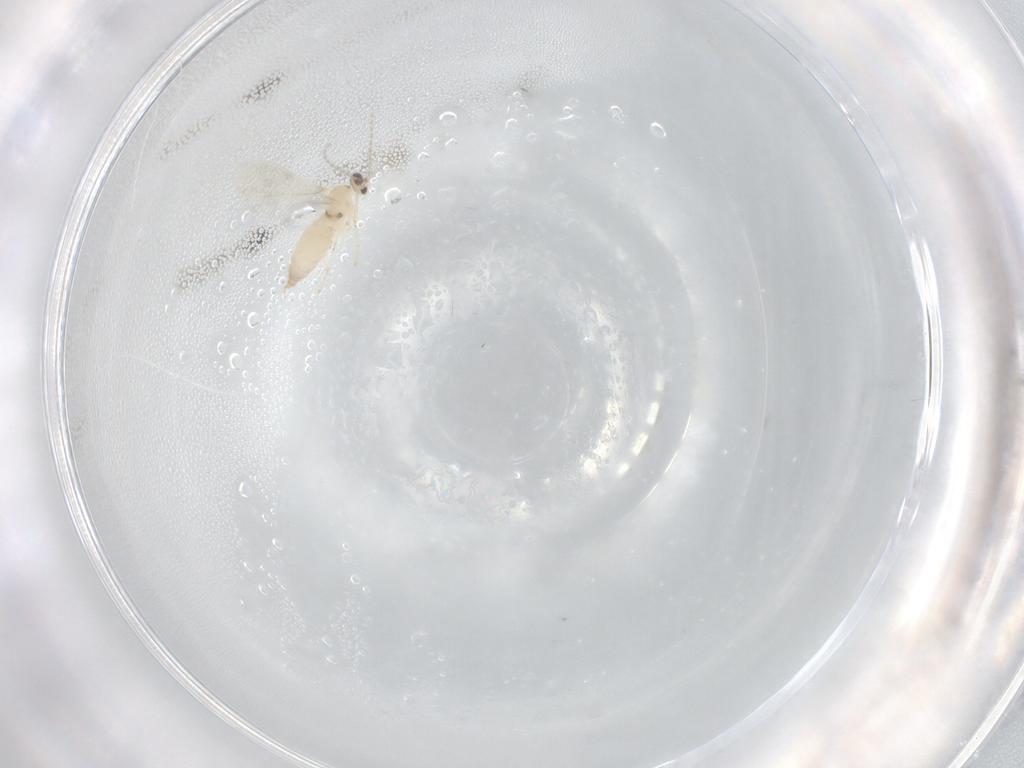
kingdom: Animalia
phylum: Arthropoda
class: Insecta
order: Diptera
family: Cecidomyiidae
